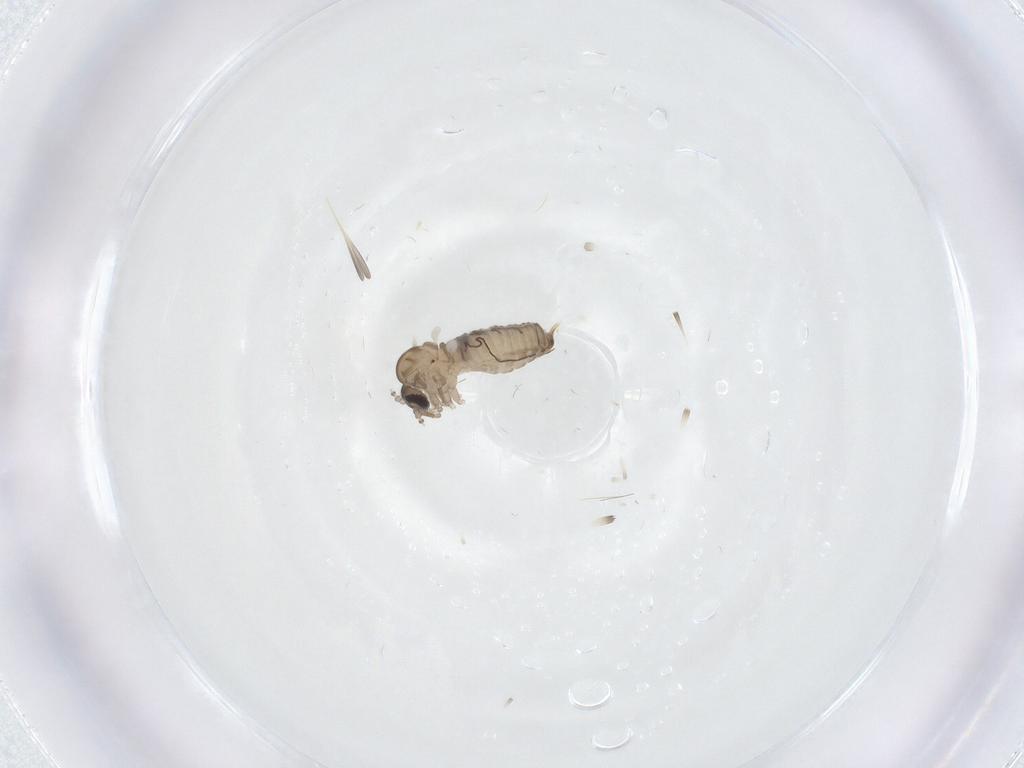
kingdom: Animalia
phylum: Arthropoda
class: Insecta
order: Diptera
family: Psychodidae
